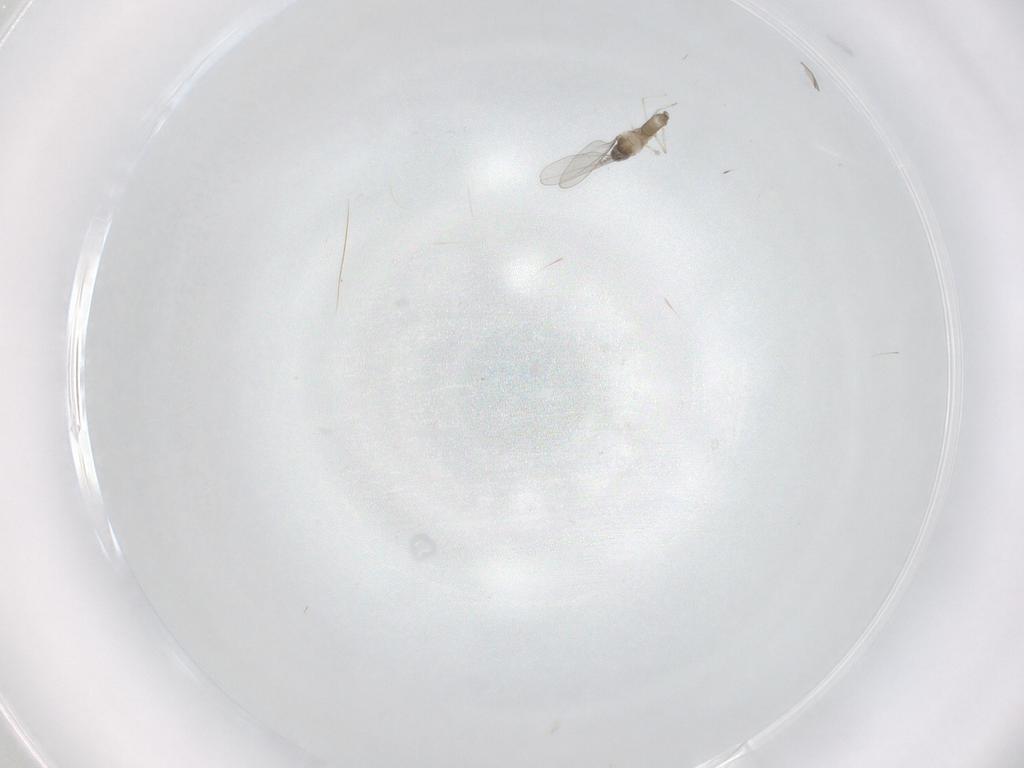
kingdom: Animalia
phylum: Arthropoda
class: Insecta
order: Diptera
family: Cecidomyiidae
